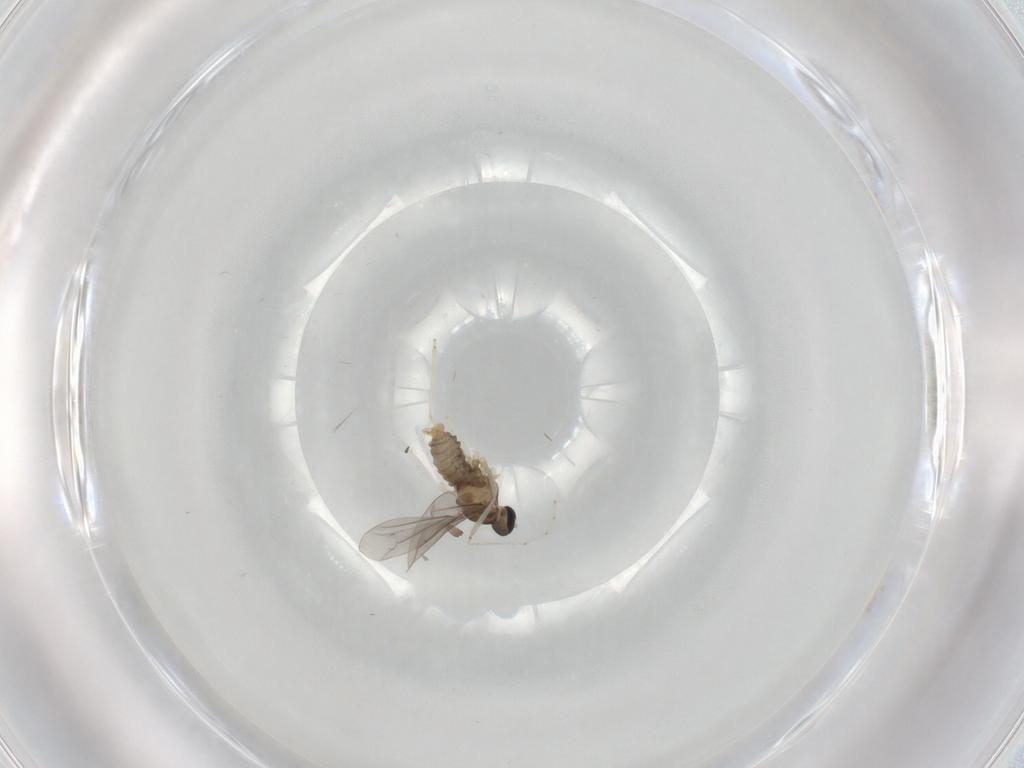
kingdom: Animalia
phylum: Arthropoda
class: Insecta
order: Diptera
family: Cecidomyiidae
